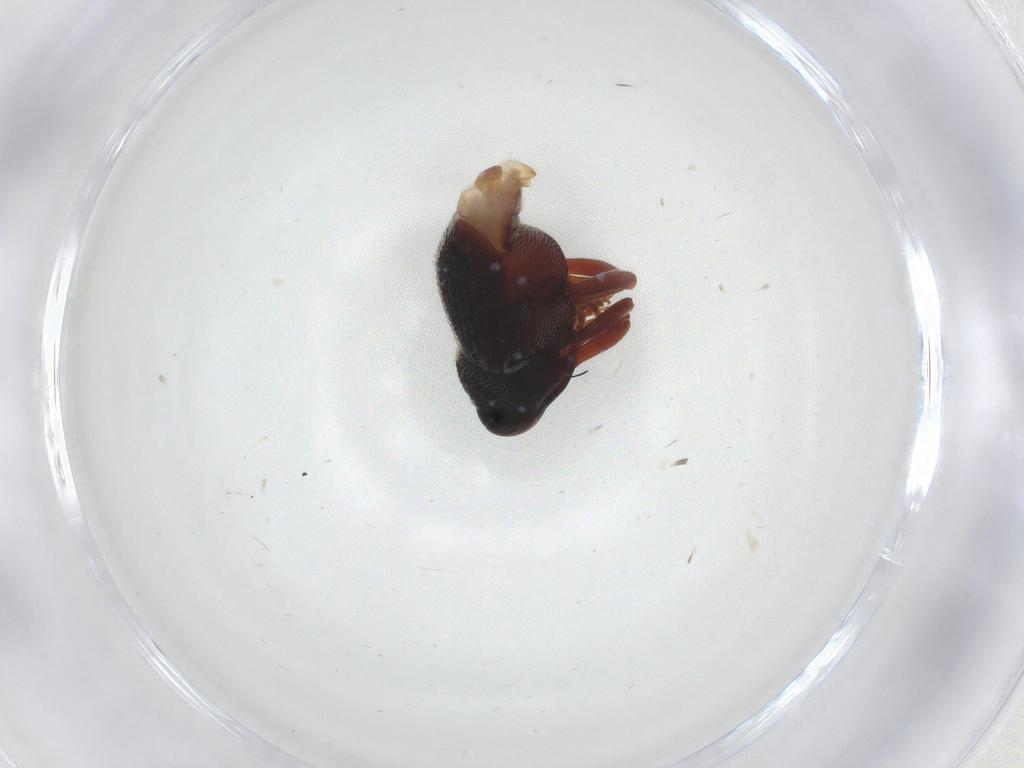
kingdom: Animalia
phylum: Arthropoda
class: Insecta
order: Coleoptera
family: Curculionidae
